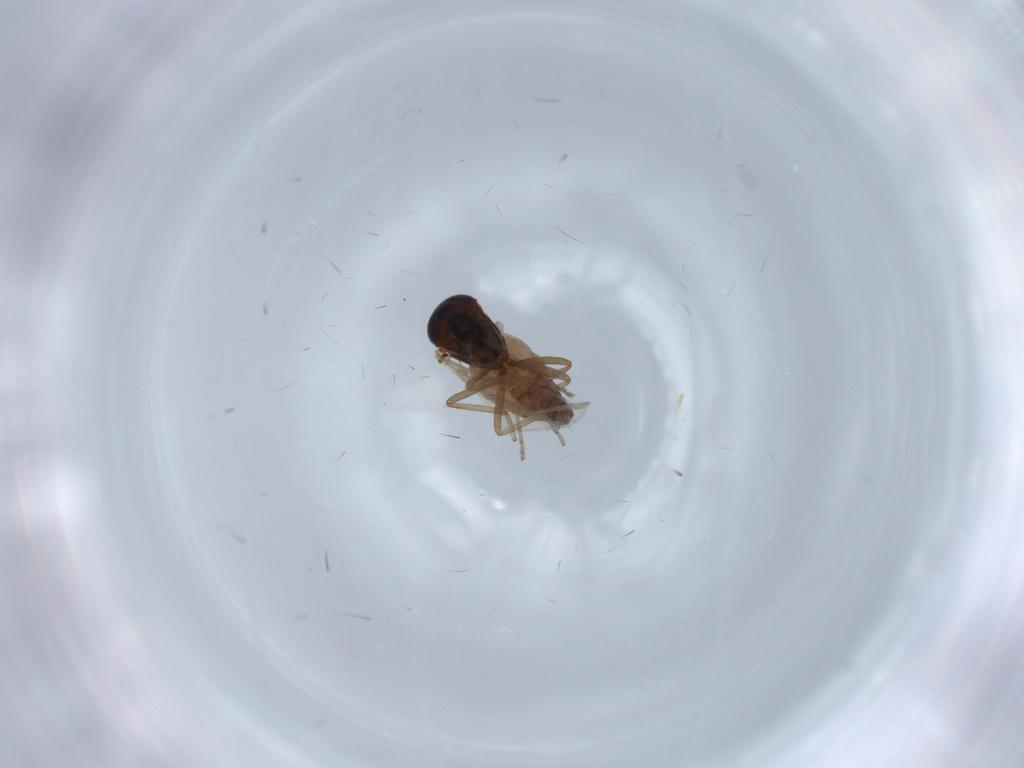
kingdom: Animalia
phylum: Arthropoda
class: Insecta
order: Diptera
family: Ceratopogonidae
